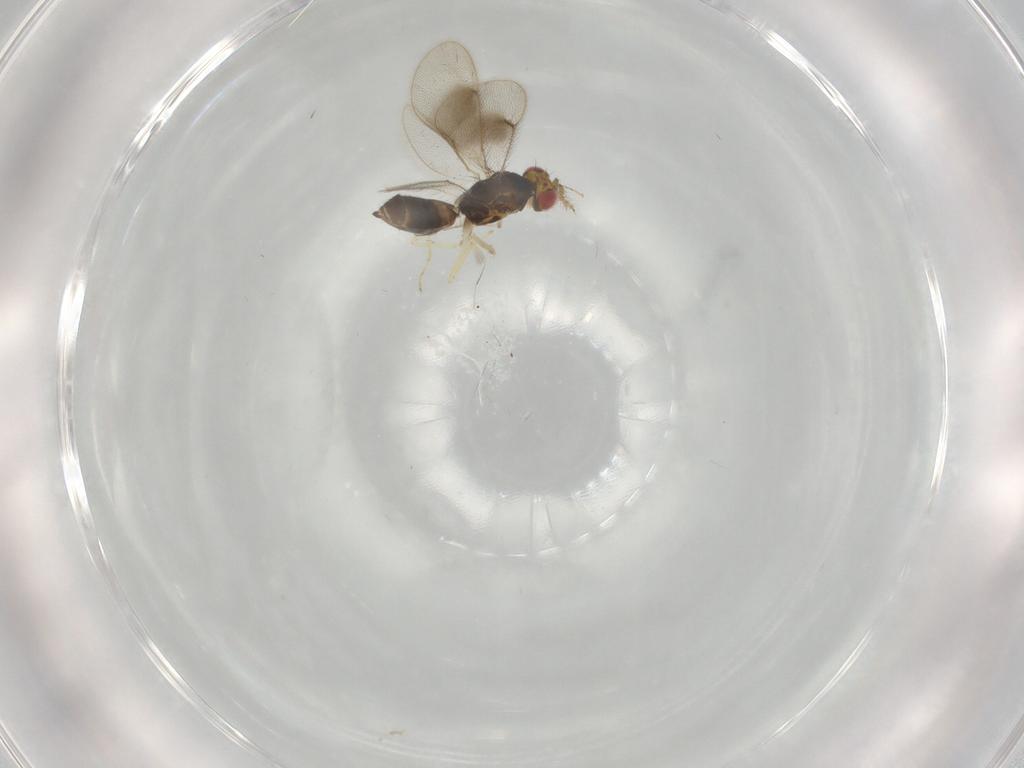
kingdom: Animalia
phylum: Arthropoda
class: Insecta
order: Hymenoptera
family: Eulophidae
